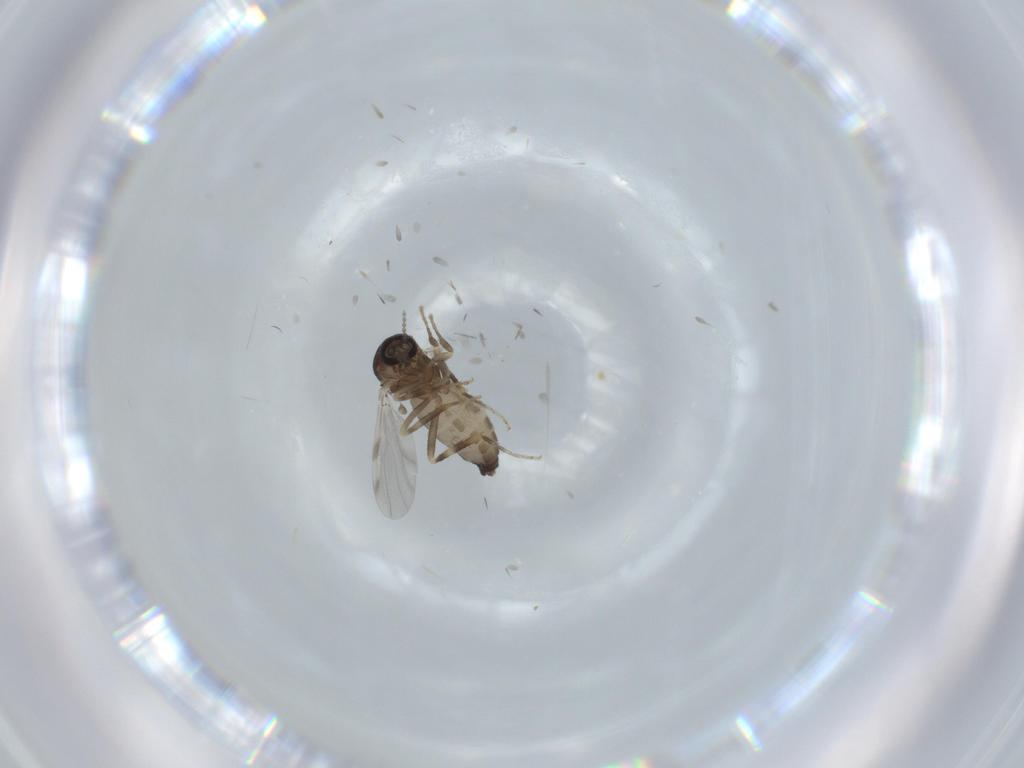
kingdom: Animalia
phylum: Arthropoda
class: Insecta
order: Diptera
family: Ceratopogonidae
